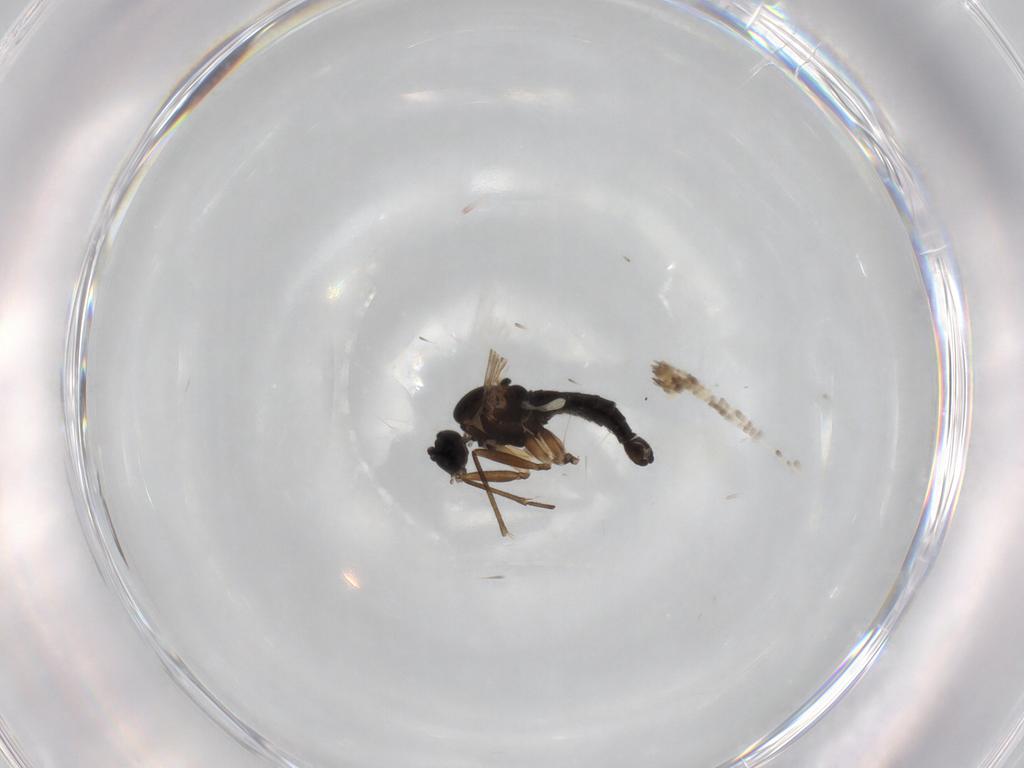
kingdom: Animalia
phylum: Arthropoda
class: Insecta
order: Diptera
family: Sciaridae
